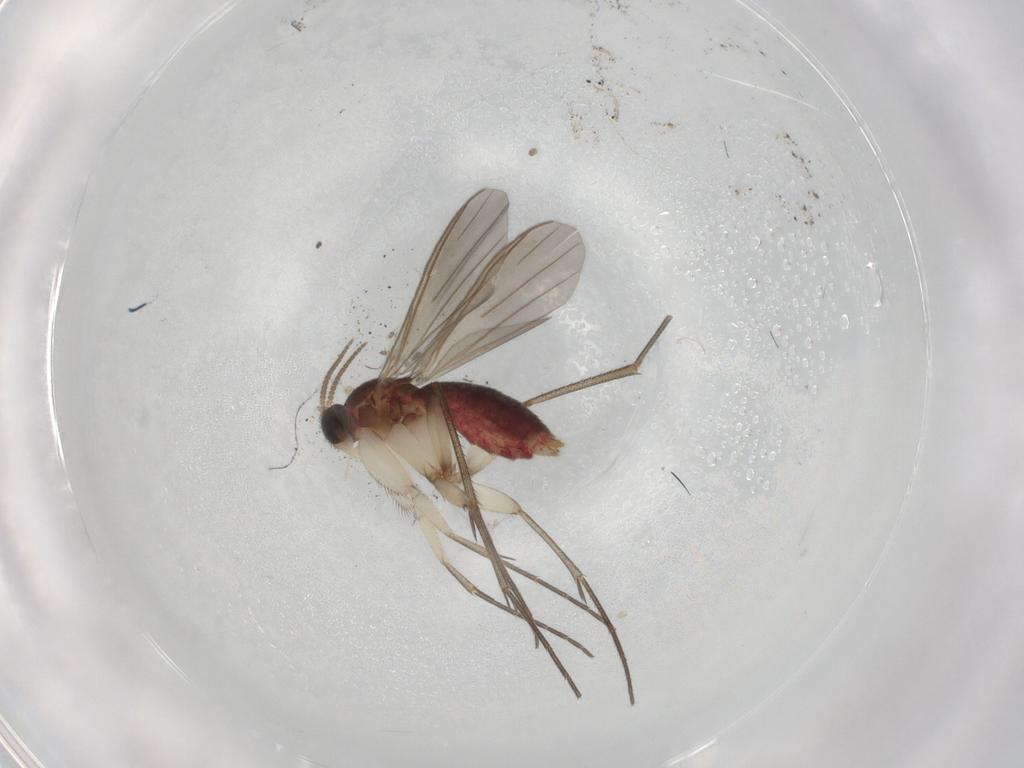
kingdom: Animalia
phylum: Arthropoda
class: Insecta
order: Diptera
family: Mycetophilidae
